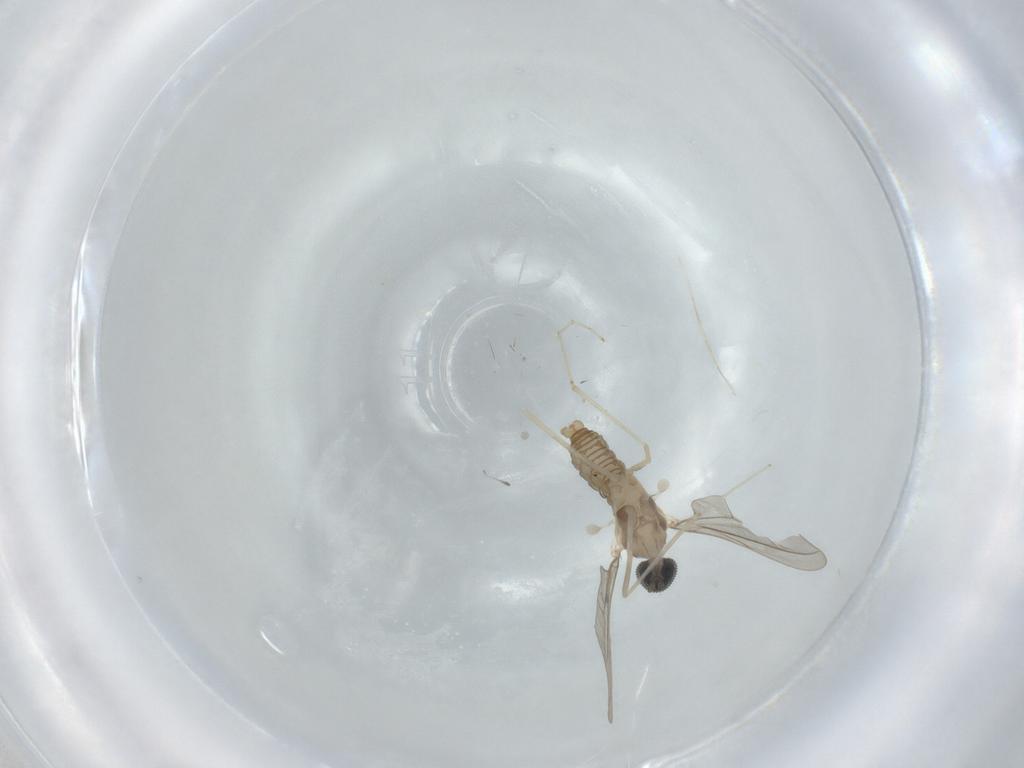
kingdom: Animalia
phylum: Arthropoda
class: Insecta
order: Diptera
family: Cecidomyiidae
